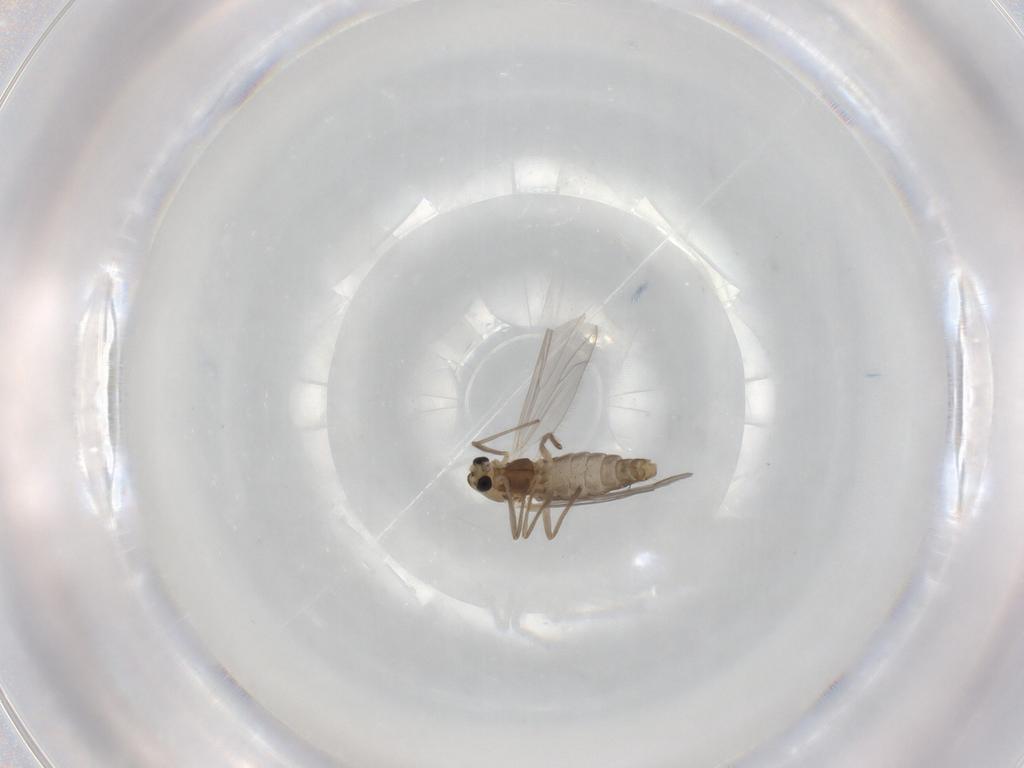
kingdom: Animalia
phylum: Arthropoda
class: Insecta
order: Diptera
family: Chironomidae
